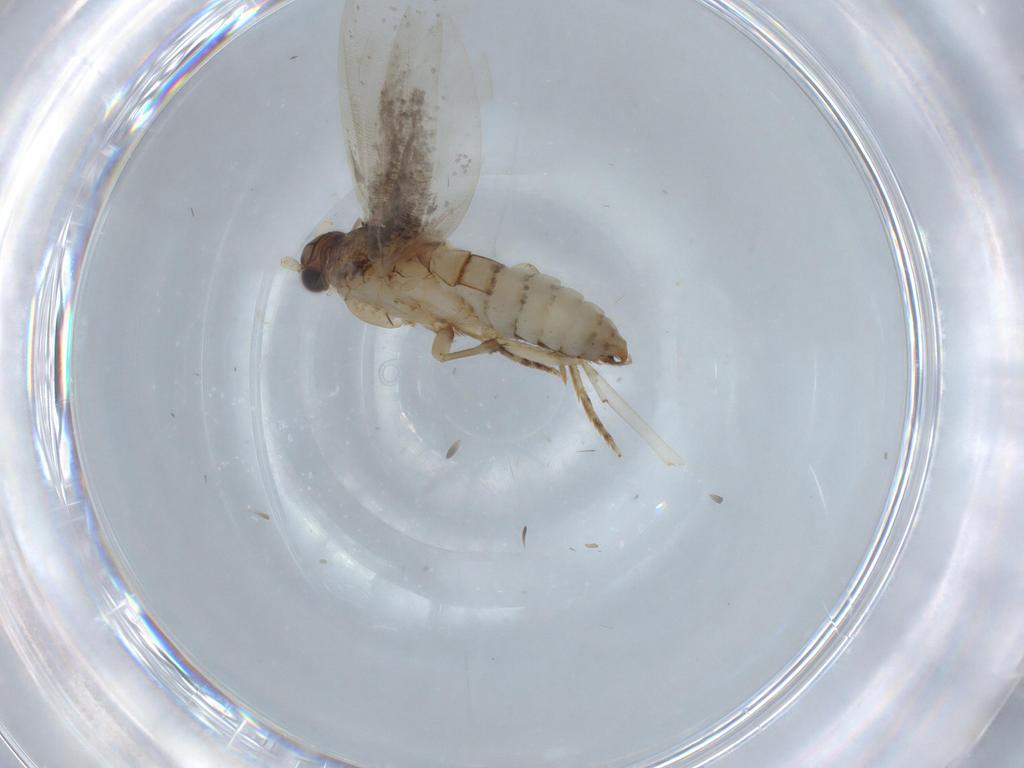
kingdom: Animalia
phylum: Arthropoda
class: Insecta
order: Lepidoptera
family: Tineidae
